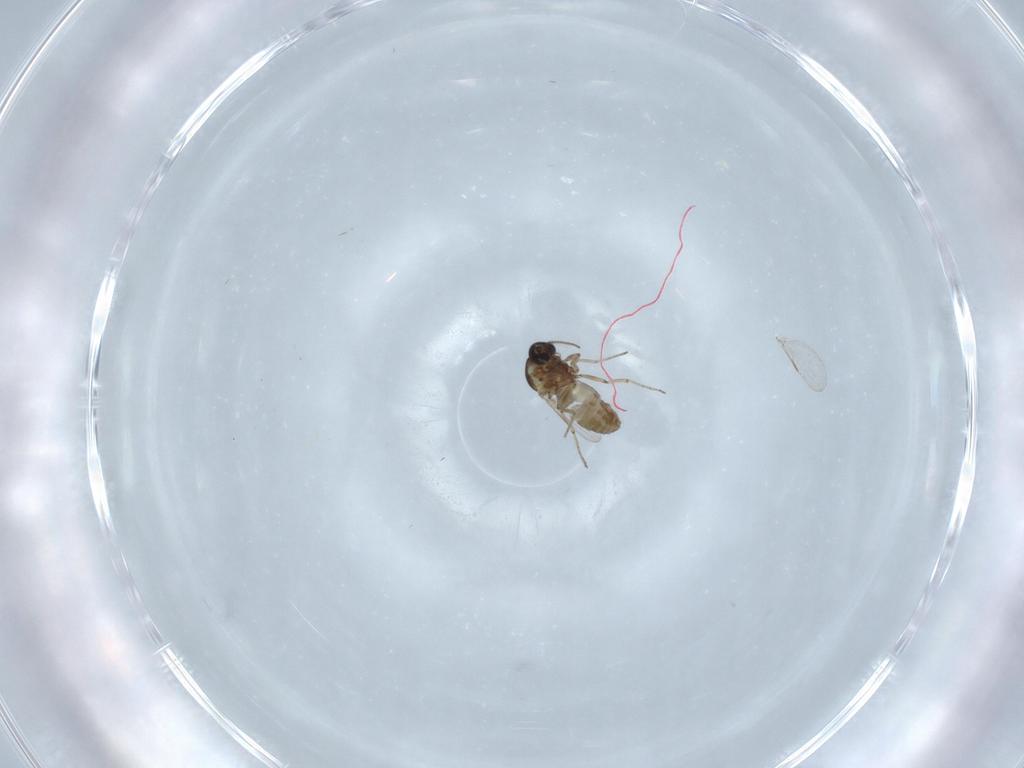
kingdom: Animalia
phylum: Arthropoda
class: Insecta
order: Diptera
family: Ceratopogonidae
